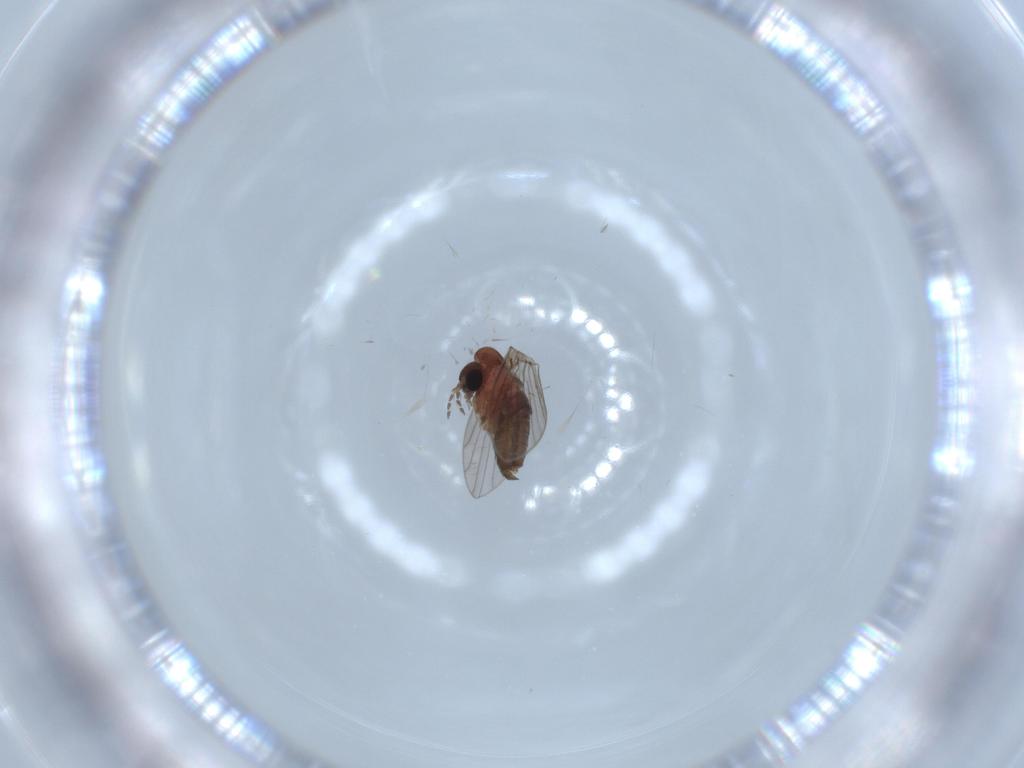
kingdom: Animalia
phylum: Arthropoda
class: Insecta
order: Diptera
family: Psychodidae
